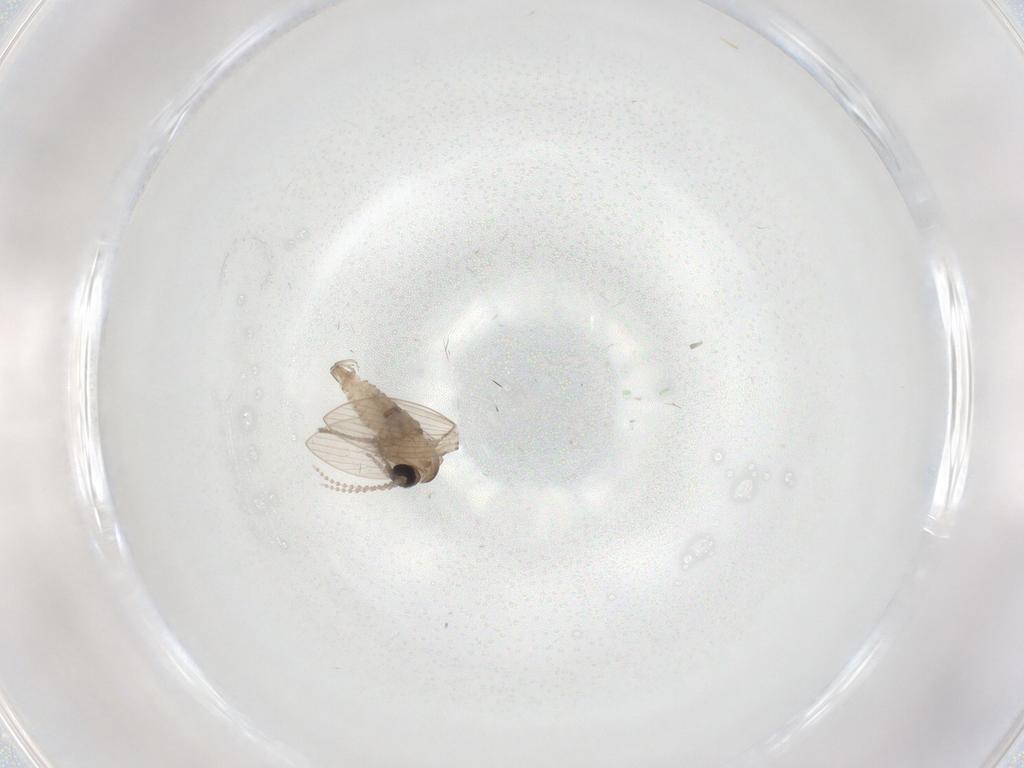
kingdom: Animalia
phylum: Arthropoda
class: Insecta
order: Diptera
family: Psychodidae
